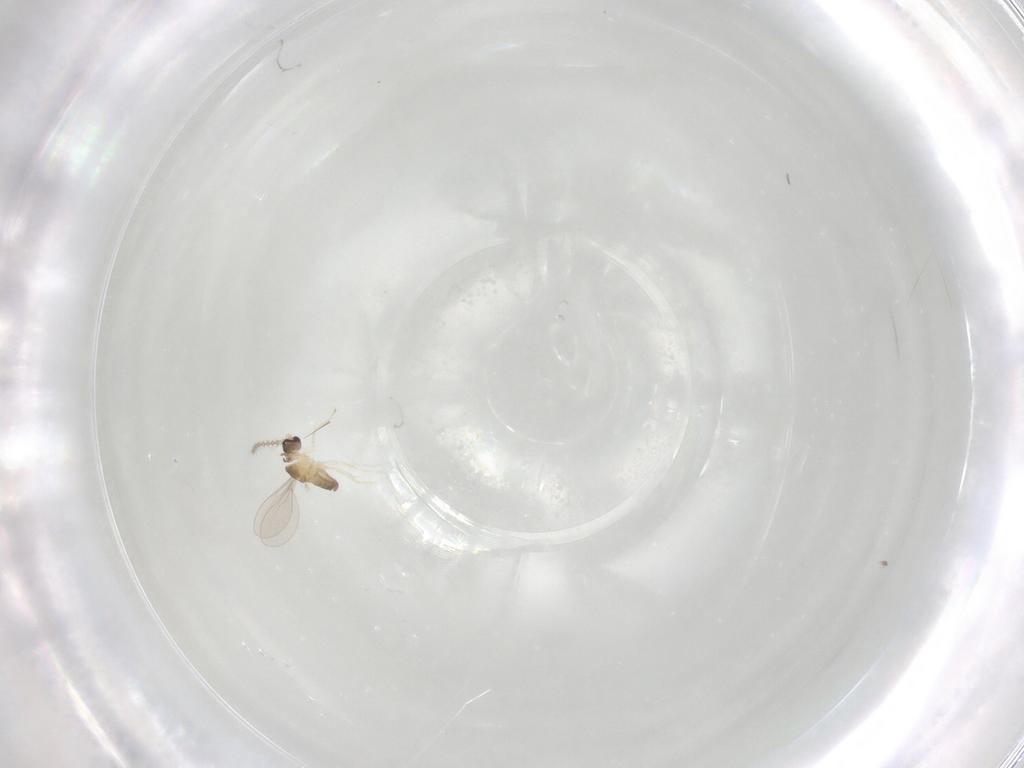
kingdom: Animalia
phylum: Arthropoda
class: Insecta
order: Diptera
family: Cecidomyiidae
